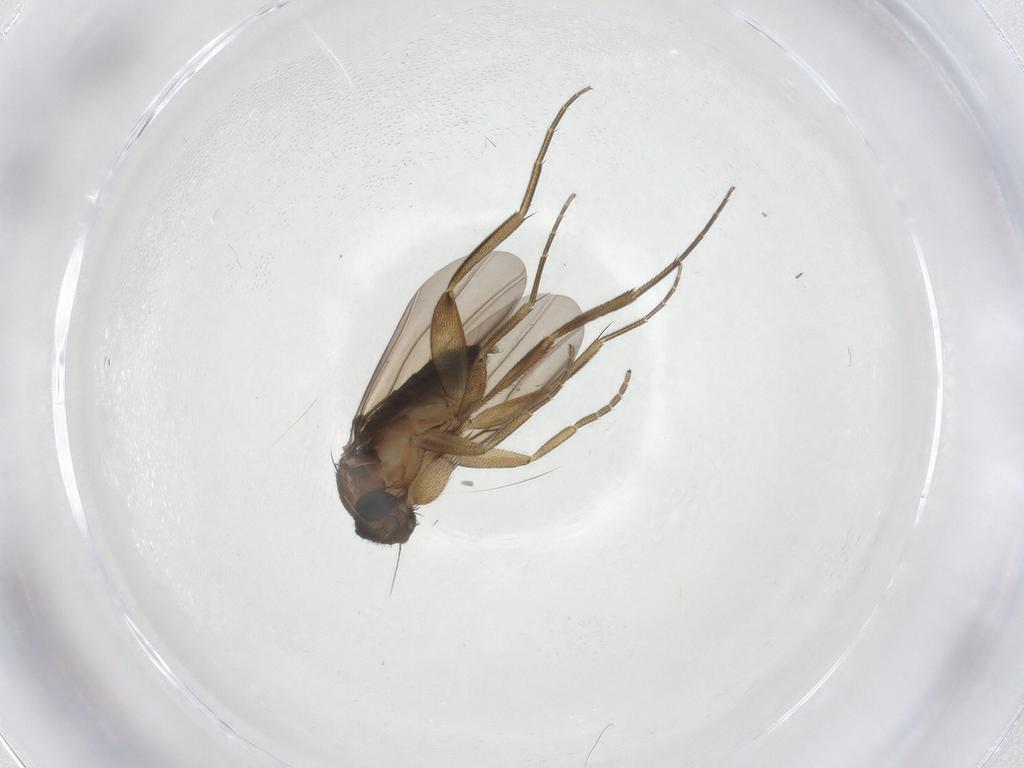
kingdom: Animalia
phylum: Arthropoda
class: Insecta
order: Diptera
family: Phoridae
